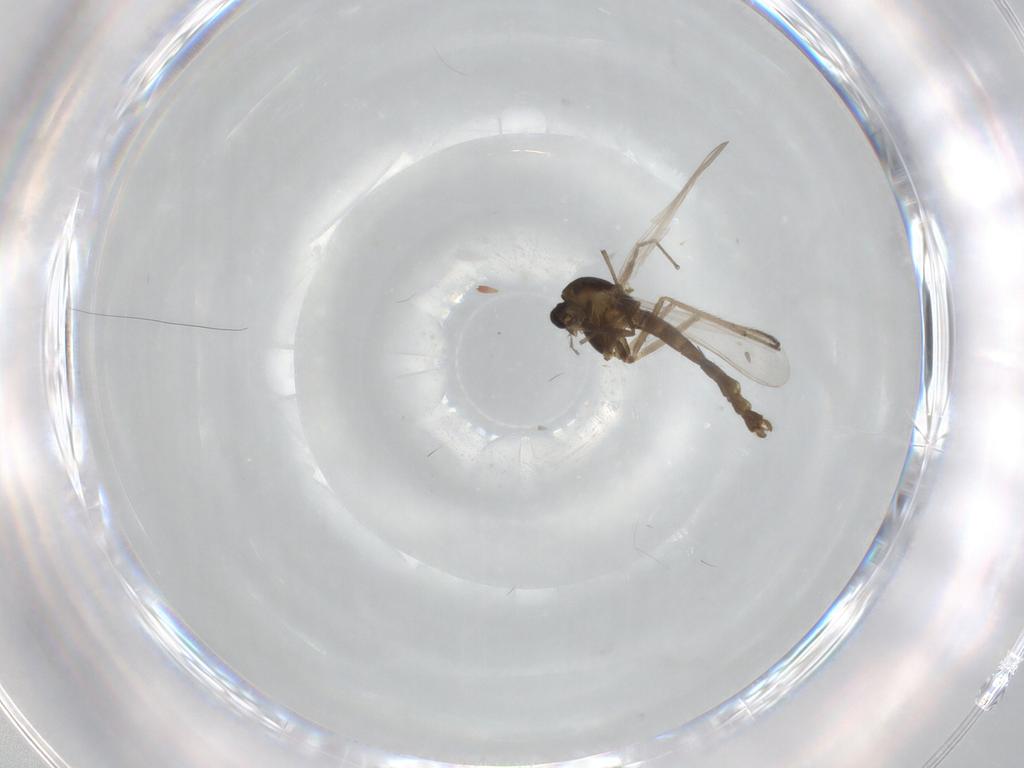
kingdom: Animalia
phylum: Arthropoda
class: Insecta
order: Diptera
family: Chironomidae
